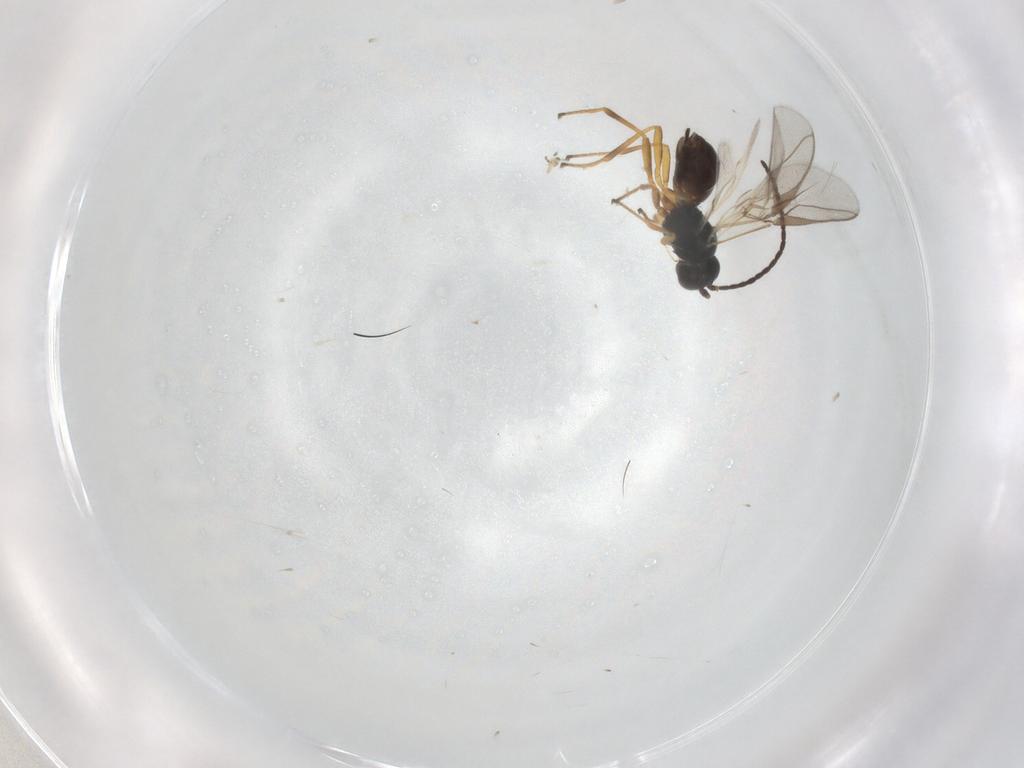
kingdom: Animalia
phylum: Arthropoda
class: Insecta
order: Hymenoptera
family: Braconidae
